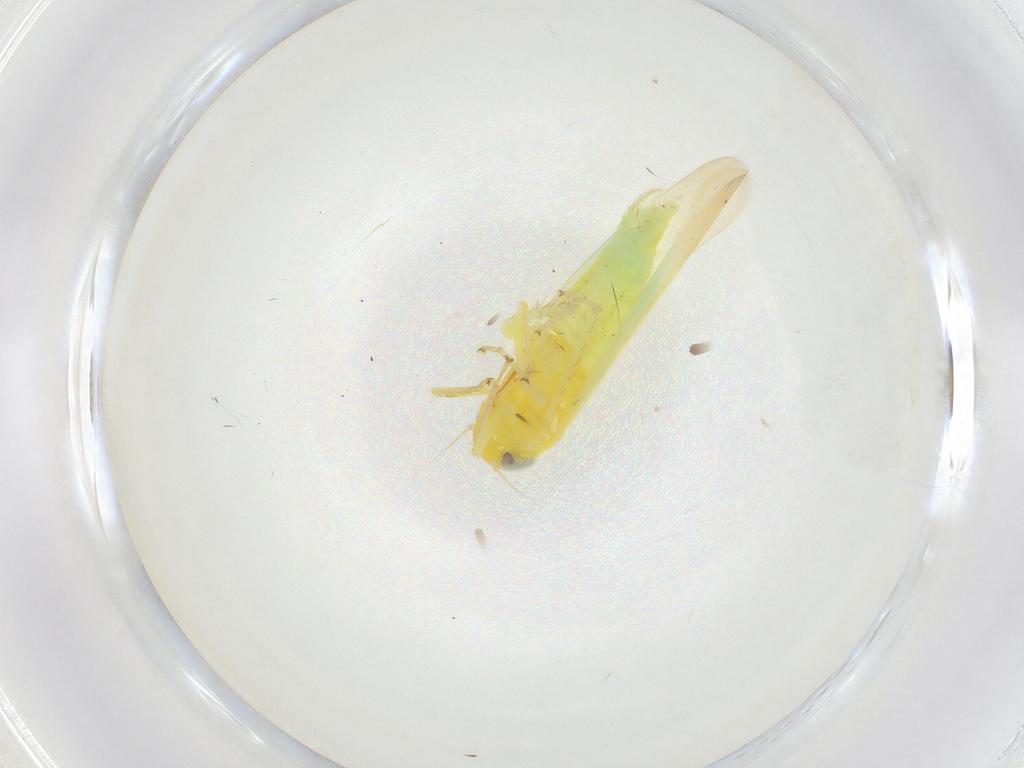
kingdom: Animalia
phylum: Arthropoda
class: Insecta
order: Hemiptera
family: Cicadellidae
